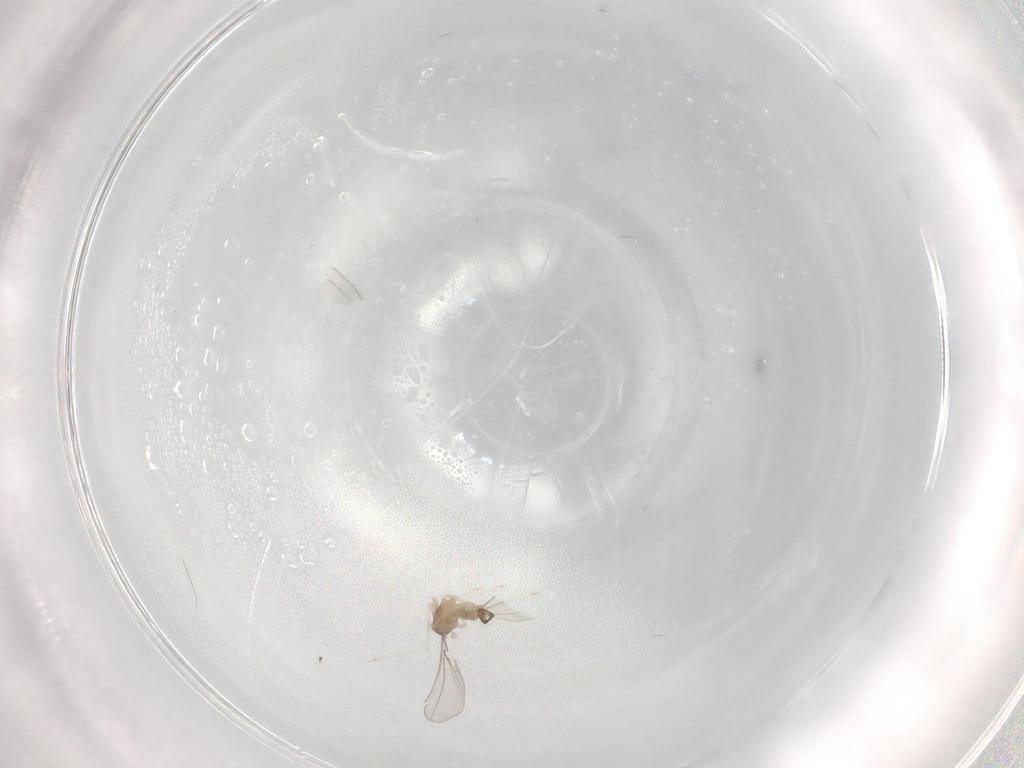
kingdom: Animalia
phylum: Arthropoda
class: Insecta
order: Diptera
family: Cecidomyiidae
